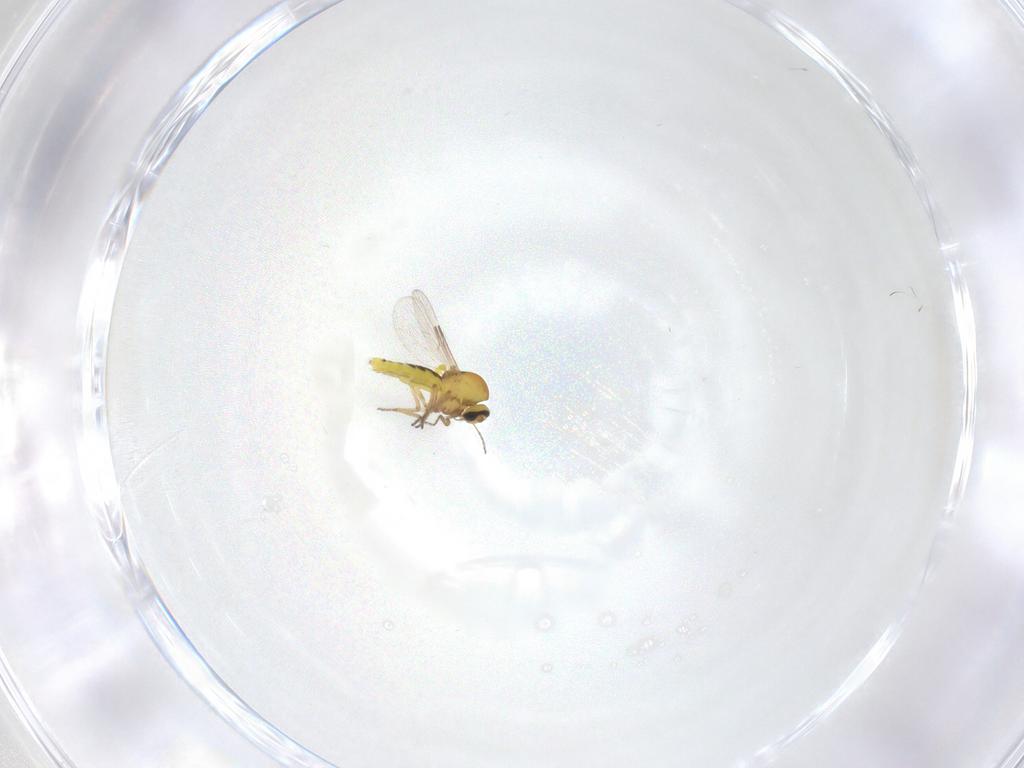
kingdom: Animalia
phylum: Arthropoda
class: Insecta
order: Diptera
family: Ceratopogonidae
